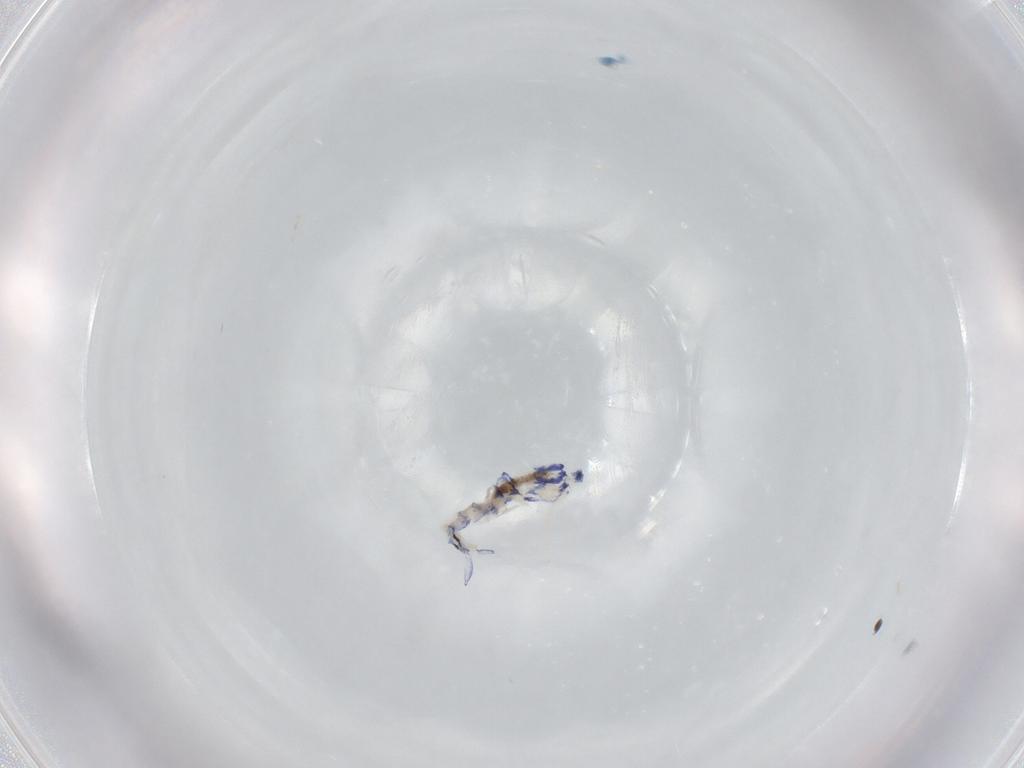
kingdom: Animalia
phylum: Arthropoda
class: Collembola
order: Entomobryomorpha
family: Entomobryidae
